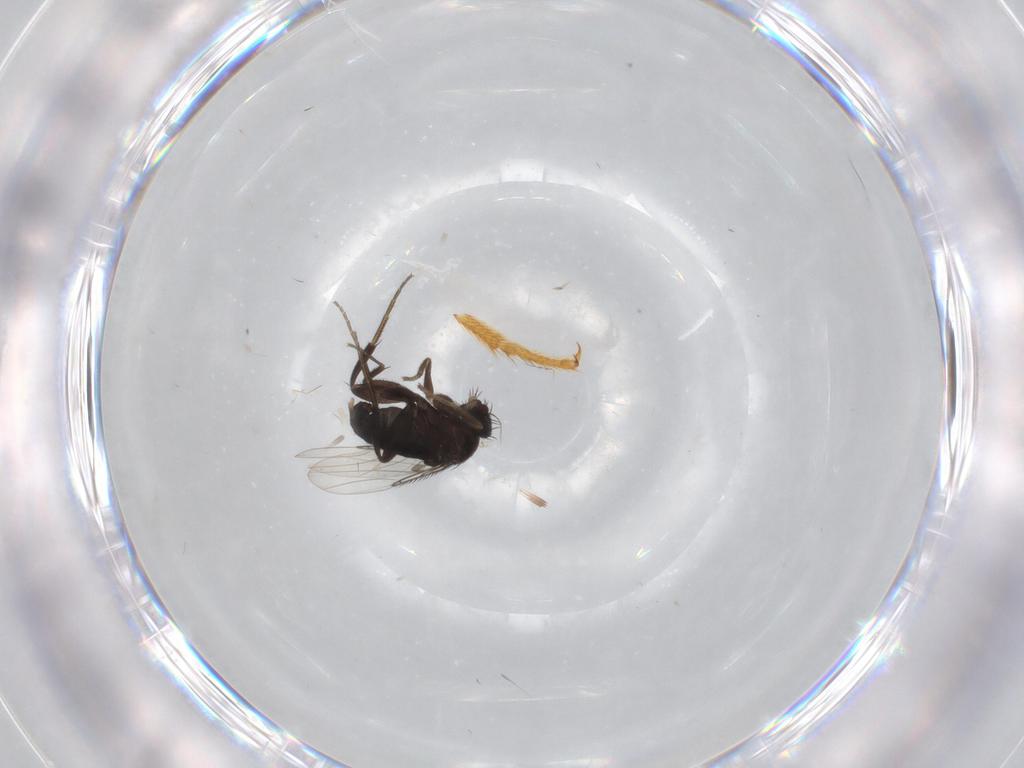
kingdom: Animalia
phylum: Arthropoda
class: Insecta
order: Diptera
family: Phoridae
